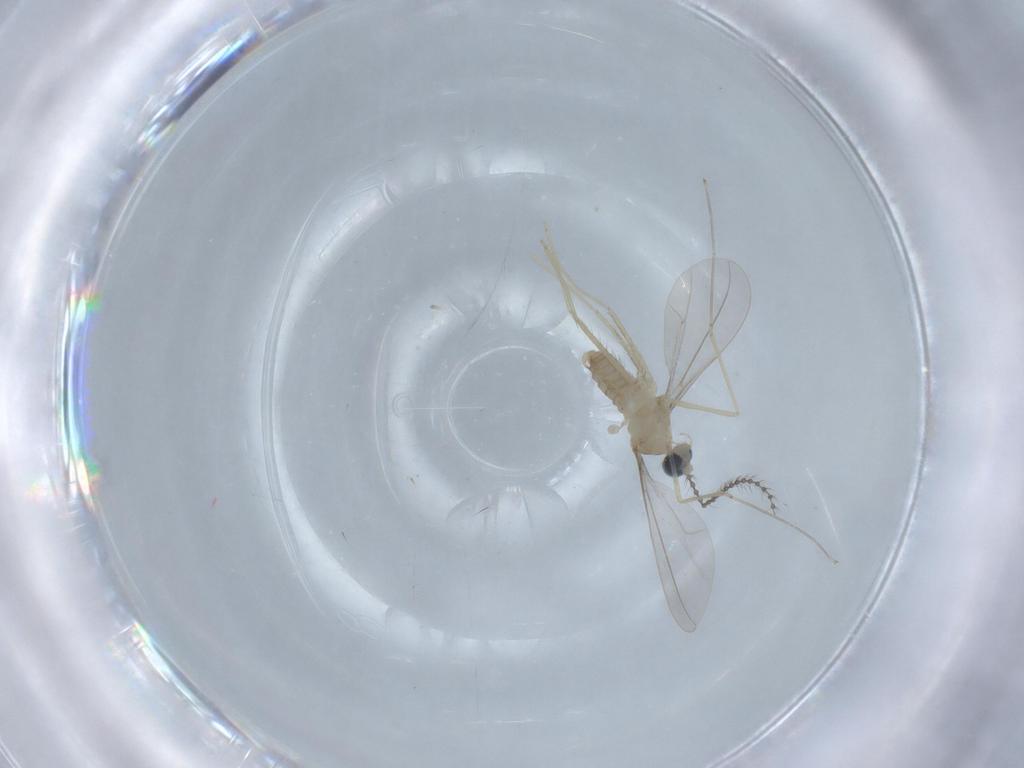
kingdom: Animalia
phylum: Arthropoda
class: Insecta
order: Diptera
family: Cecidomyiidae
